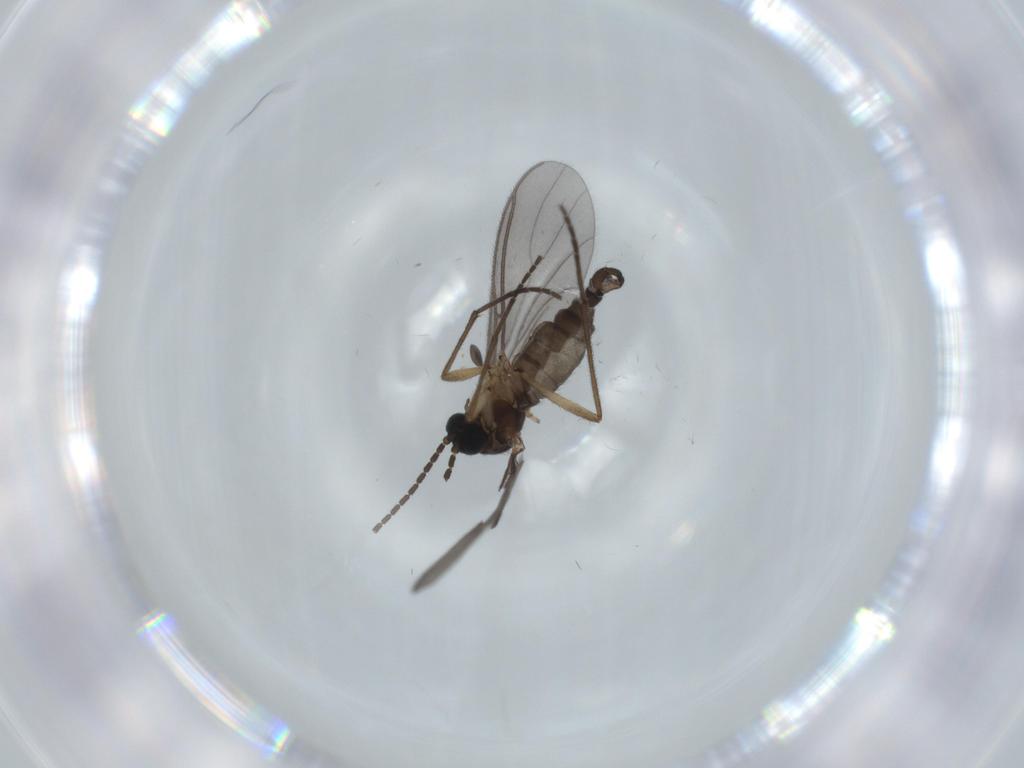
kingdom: Animalia
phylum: Arthropoda
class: Insecta
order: Diptera
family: Sciaridae
